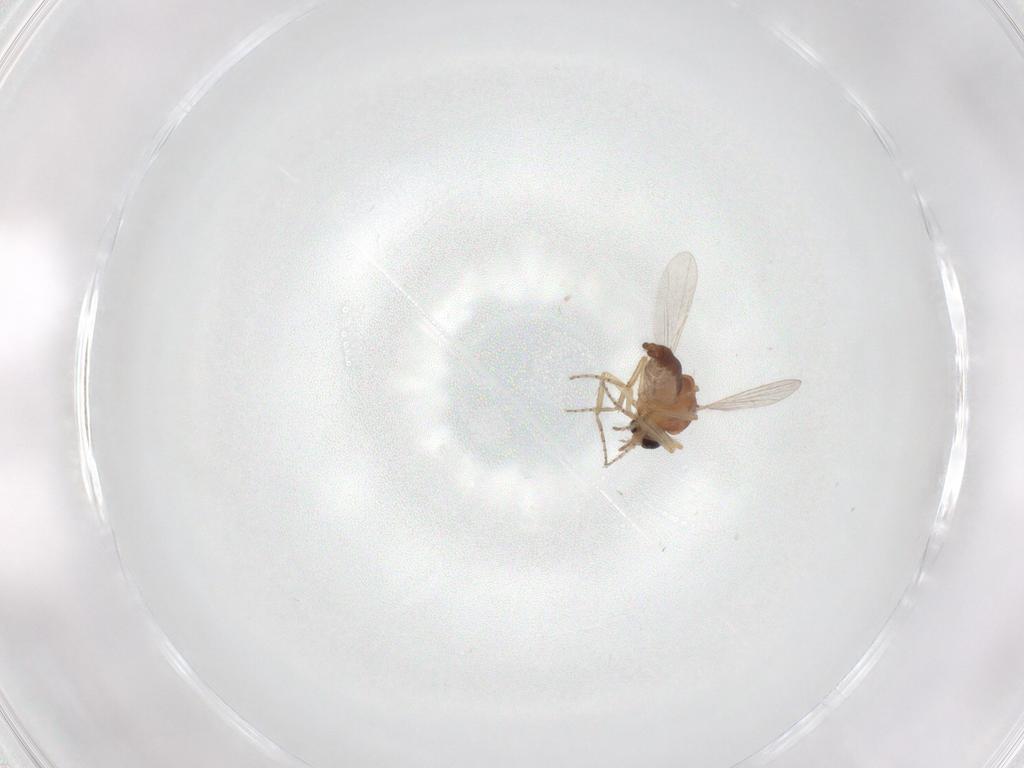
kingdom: Animalia
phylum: Arthropoda
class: Insecta
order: Diptera
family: Ceratopogonidae
